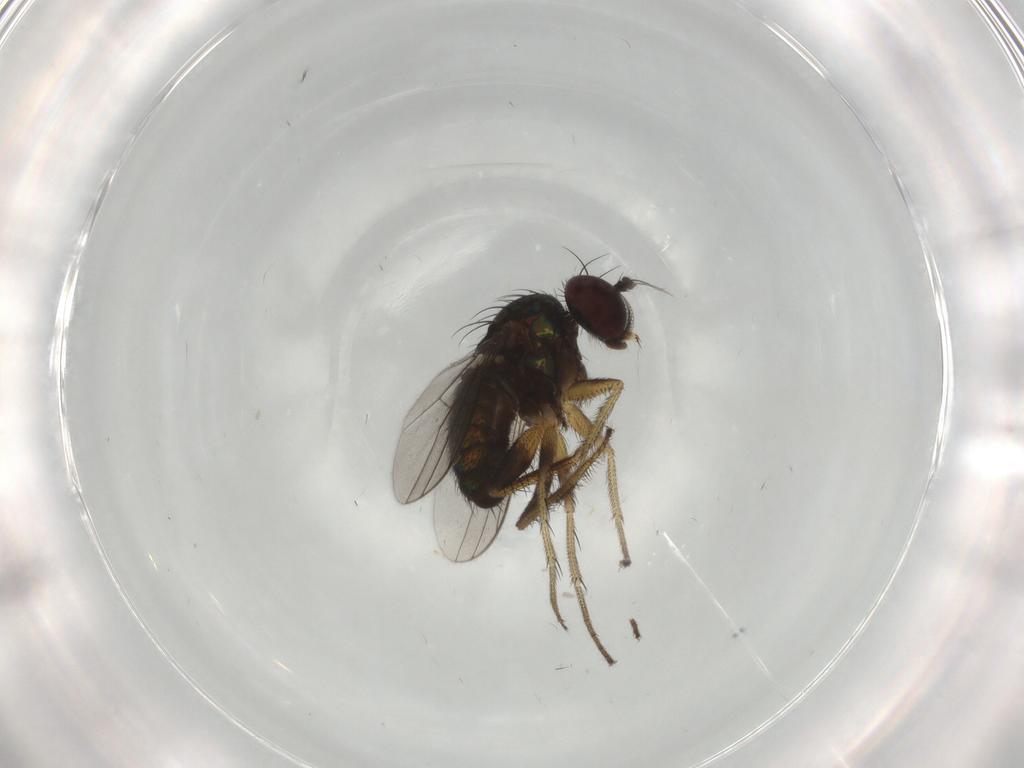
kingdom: Animalia
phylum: Arthropoda
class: Insecta
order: Diptera
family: Dolichopodidae
